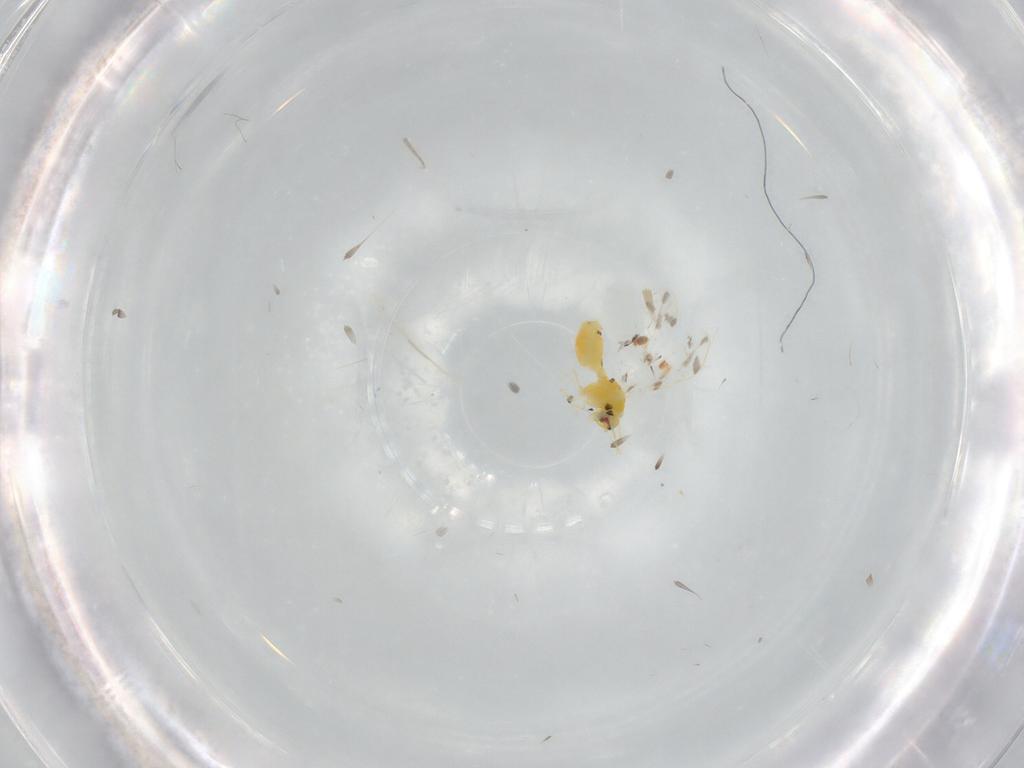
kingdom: Animalia
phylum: Arthropoda
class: Insecta
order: Hemiptera
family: Aleyrodidae
